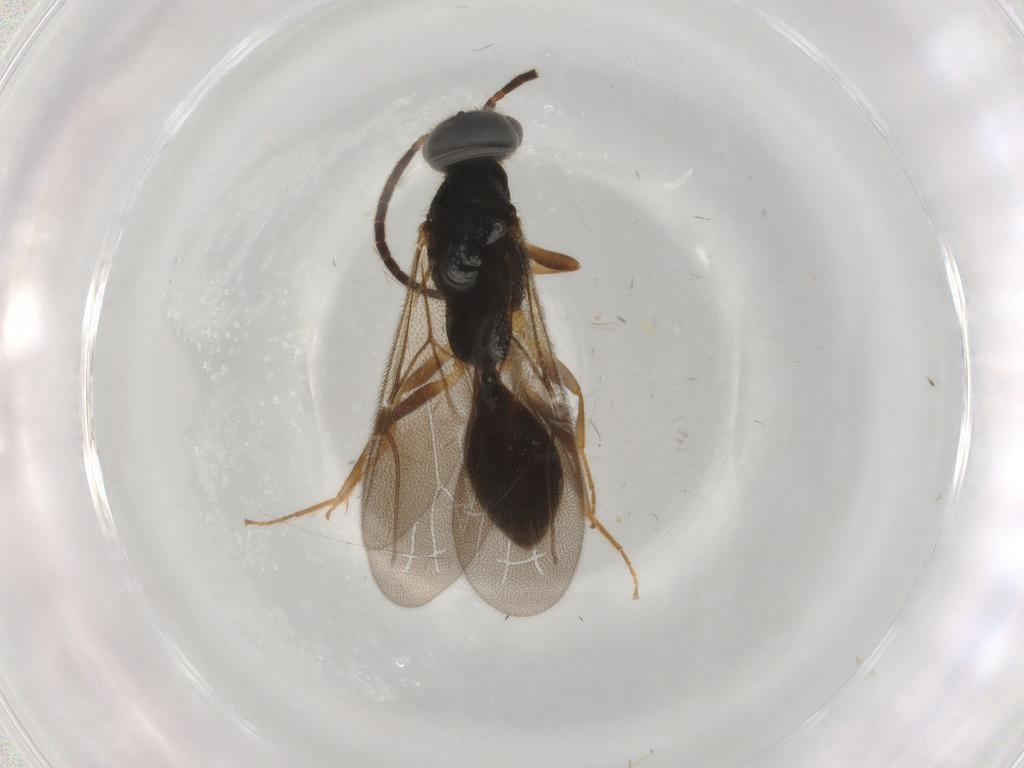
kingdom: Animalia
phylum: Arthropoda
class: Insecta
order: Hymenoptera
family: Bethylidae
